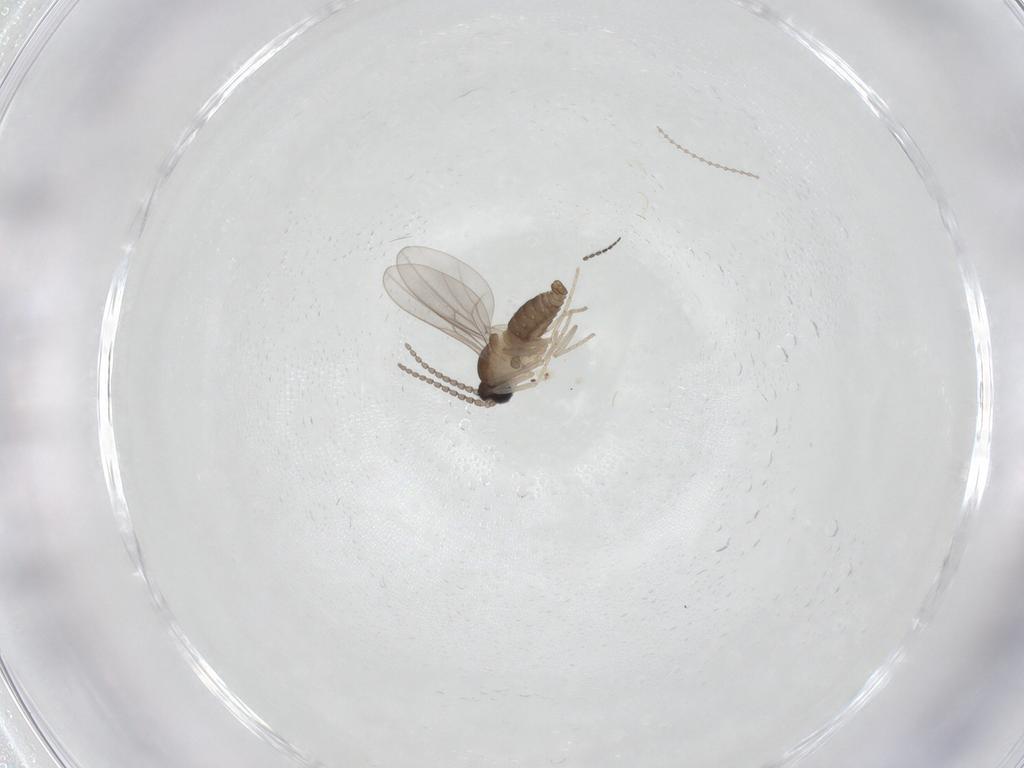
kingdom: Animalia
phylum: Arthropoda
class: Insecta
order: Diptera
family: Cecidomyiidae
